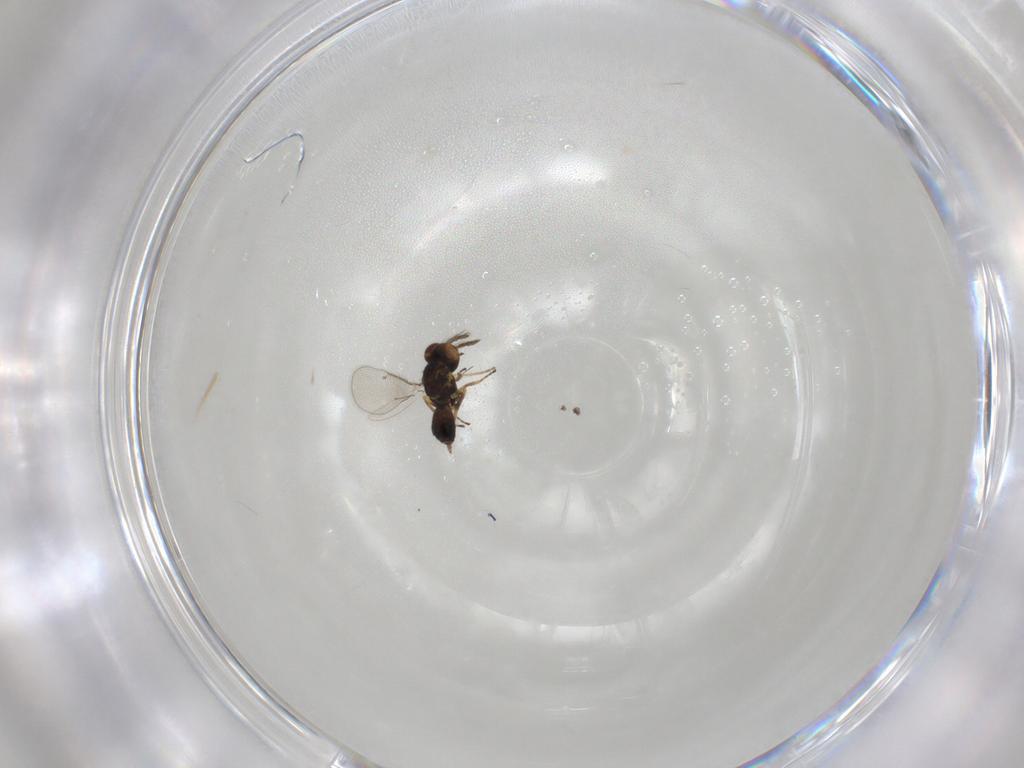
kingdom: Animalia
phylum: Arthropoda
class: Insecta
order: Hymenoptera
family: Eulophidae
